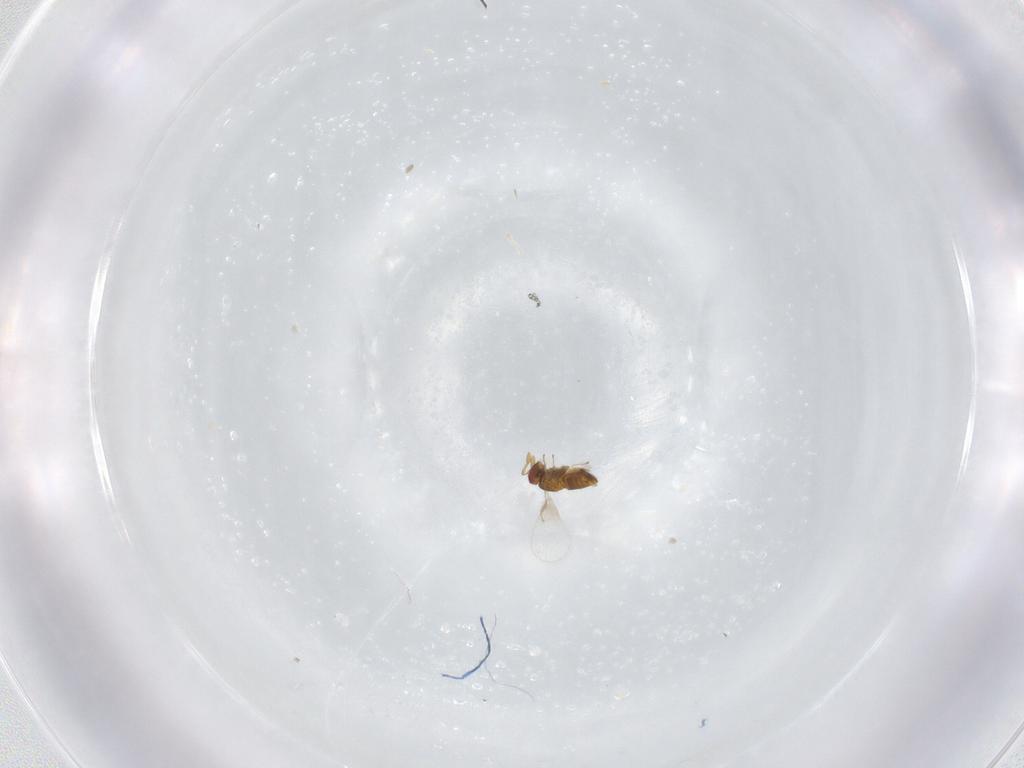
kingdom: Animalia
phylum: Arthropoda
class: Insecta
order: Hymenoptera
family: Trichogrammatidae
